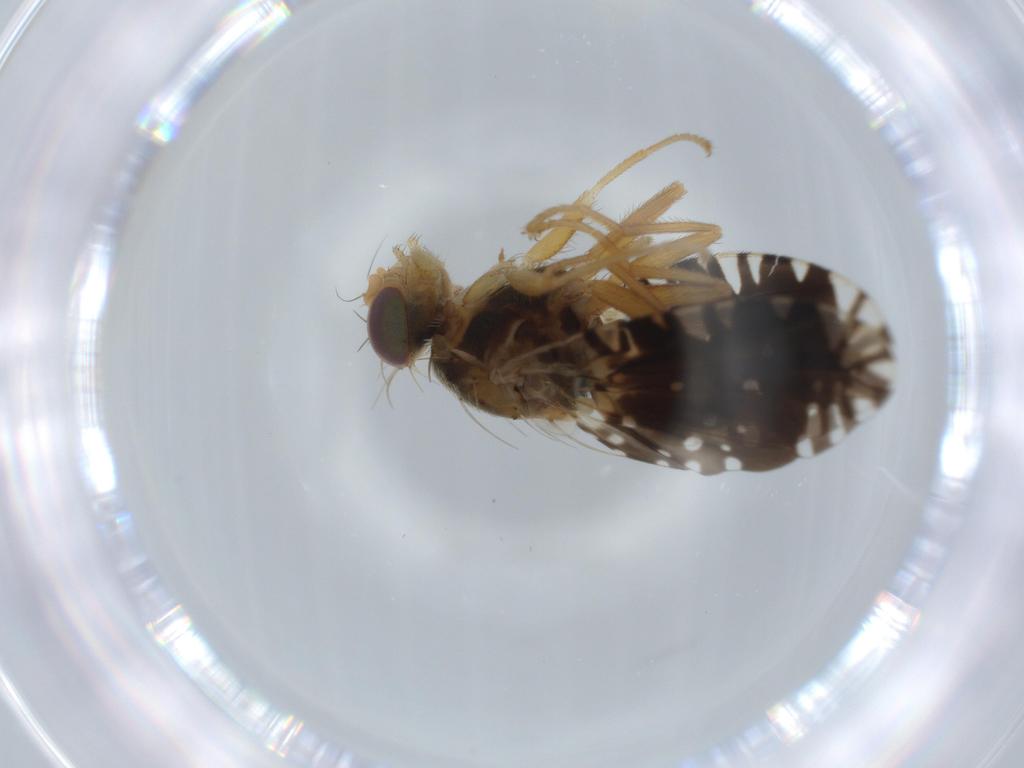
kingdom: Animalia
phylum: Arthropoda
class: Insecta
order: Diptera
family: Tephritidae
